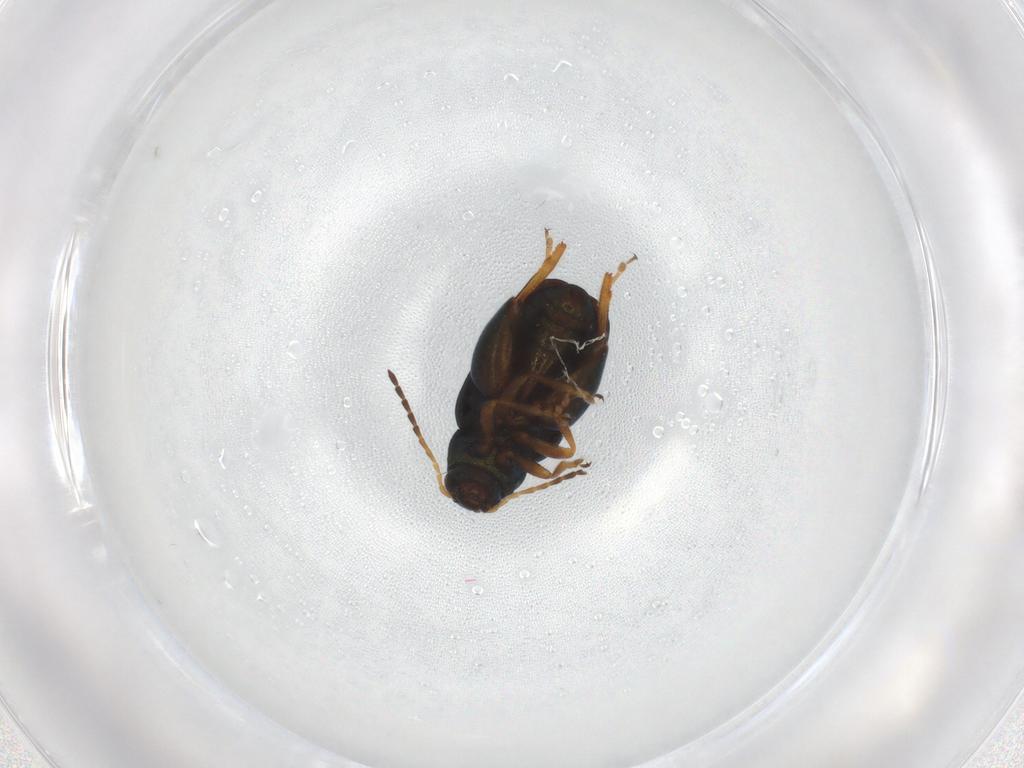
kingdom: Animalia
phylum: Arthropoda
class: Insecta
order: Coleoptera
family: Chrysomelidae
